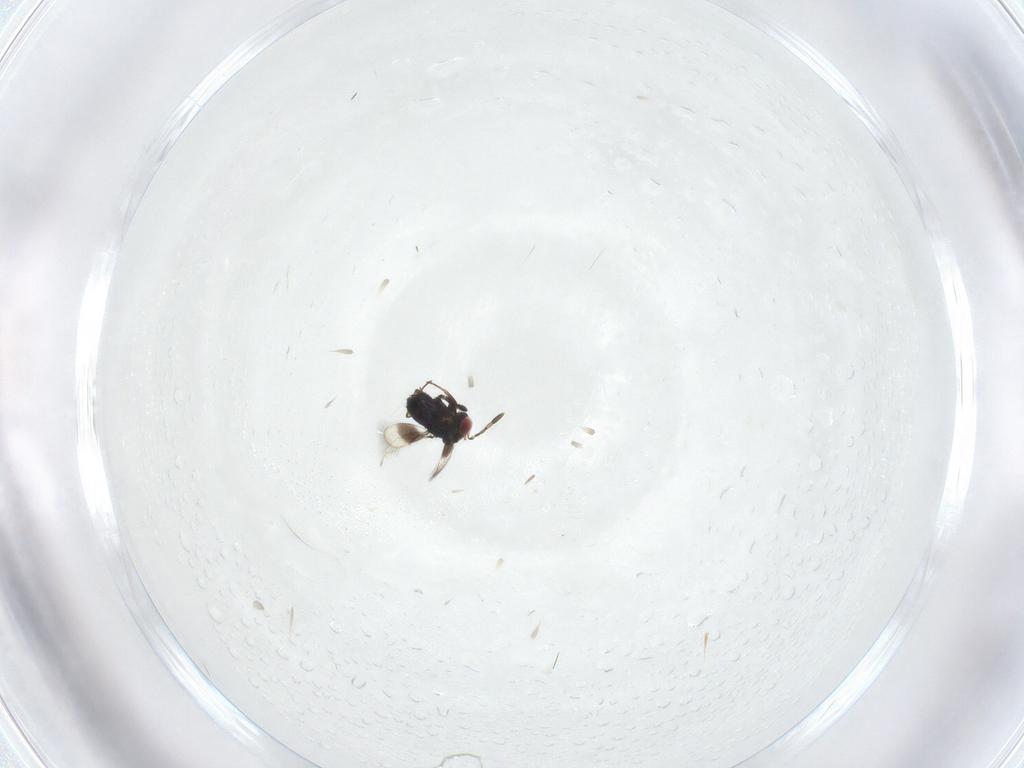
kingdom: Animalia
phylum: Arthropoda
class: Insecta
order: Hymenoptera
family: Azotidae
